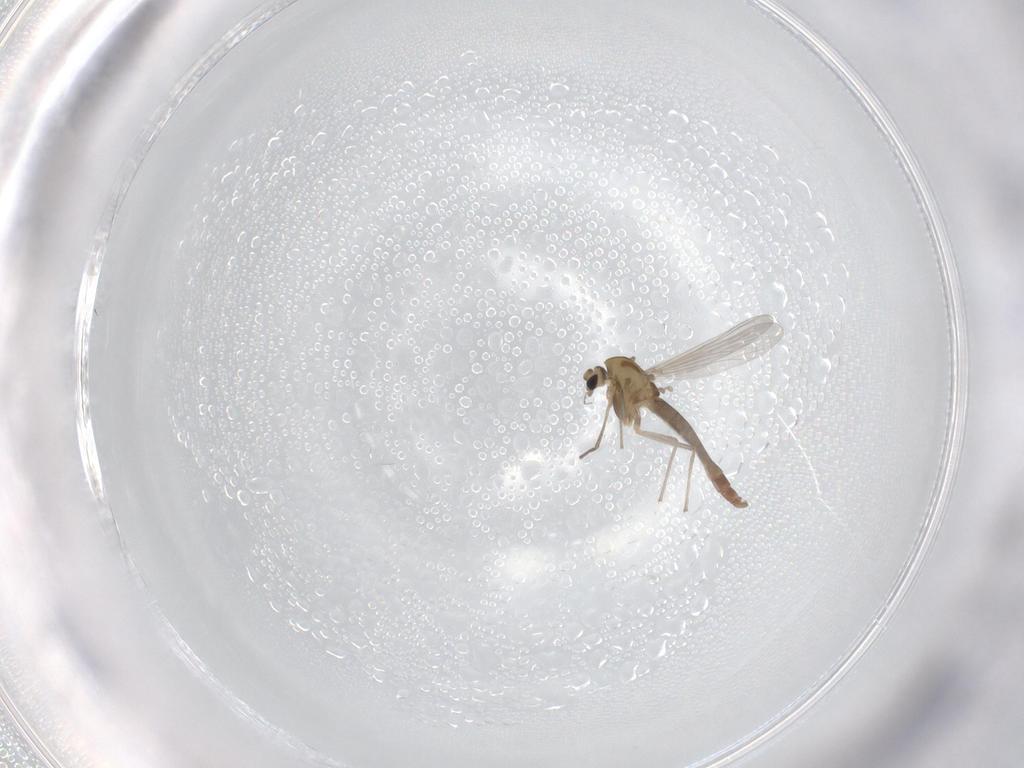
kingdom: Animalia
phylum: Arthropoda
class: Insecta
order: Diptera
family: Chironomidae
